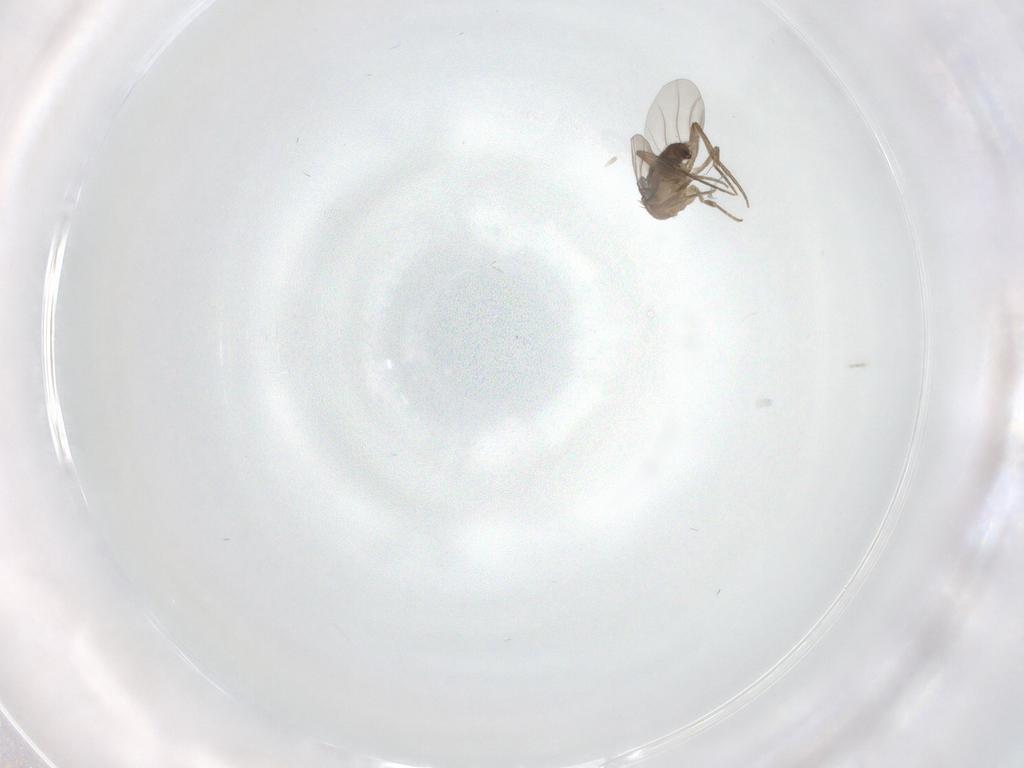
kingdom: Animalia
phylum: Arthropoda
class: Insecta
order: Diptera
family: Phoridae
